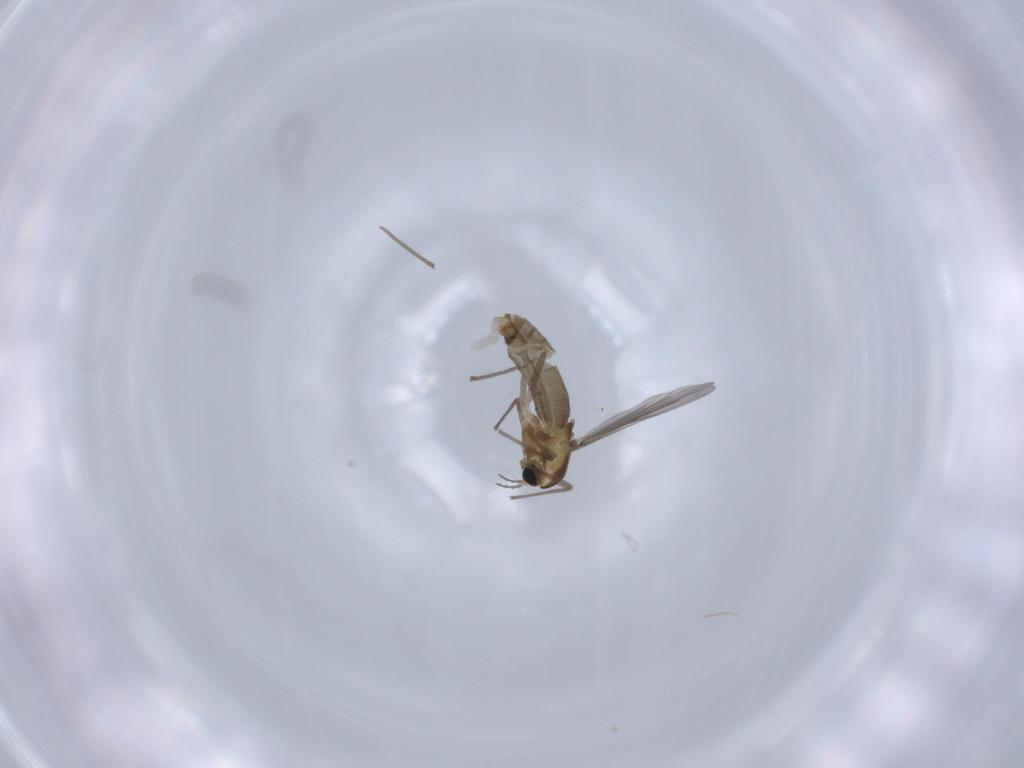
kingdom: Animalia
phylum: Arthropoda
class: Insecta
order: Diptera
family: Chironomidae
